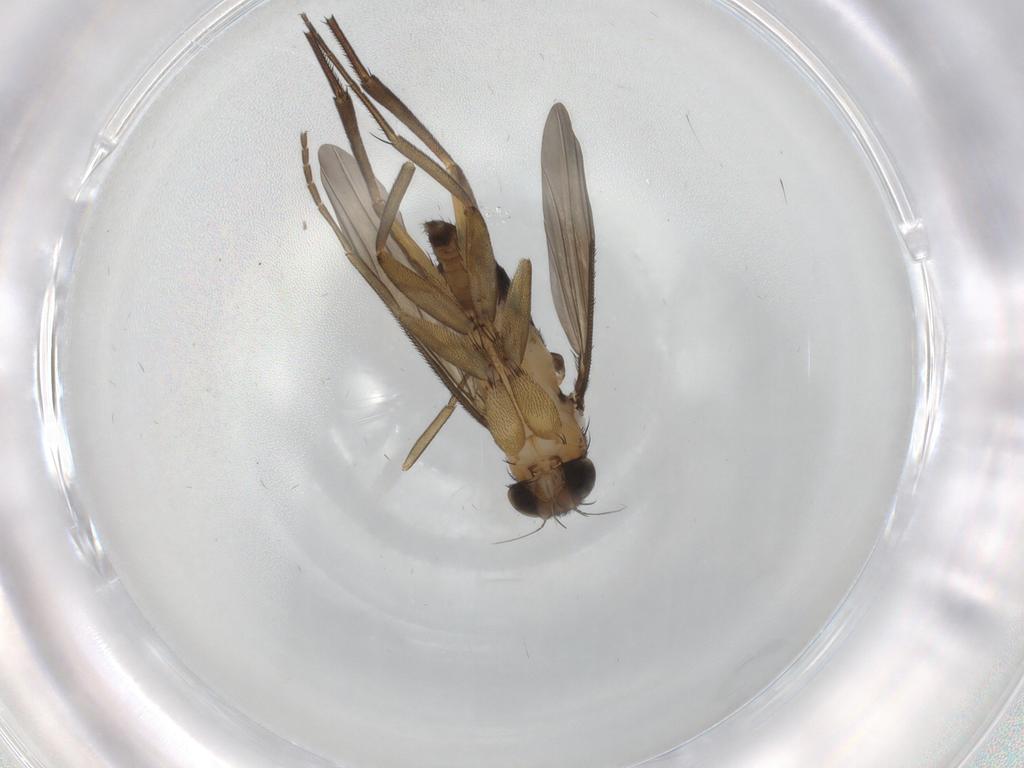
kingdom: Animalia
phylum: Arthropoda
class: Insecta
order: Diptera
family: Phoridae
